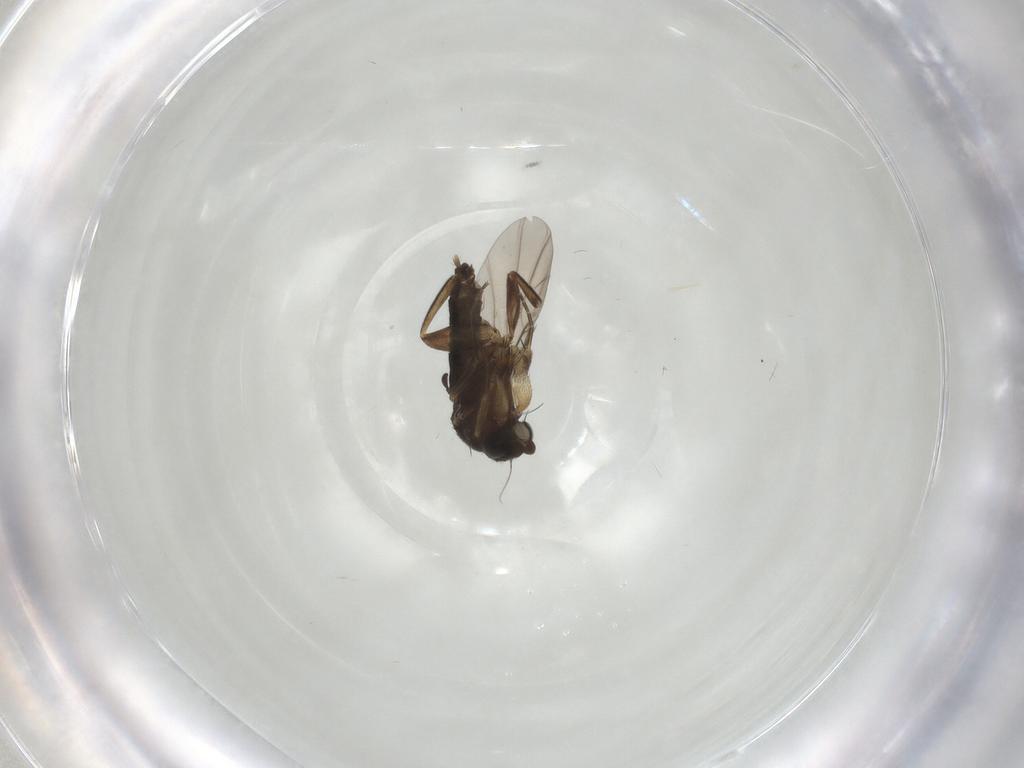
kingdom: Animalia
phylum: Arthropoda
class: Insecta
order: Diptera
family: Phoridae
